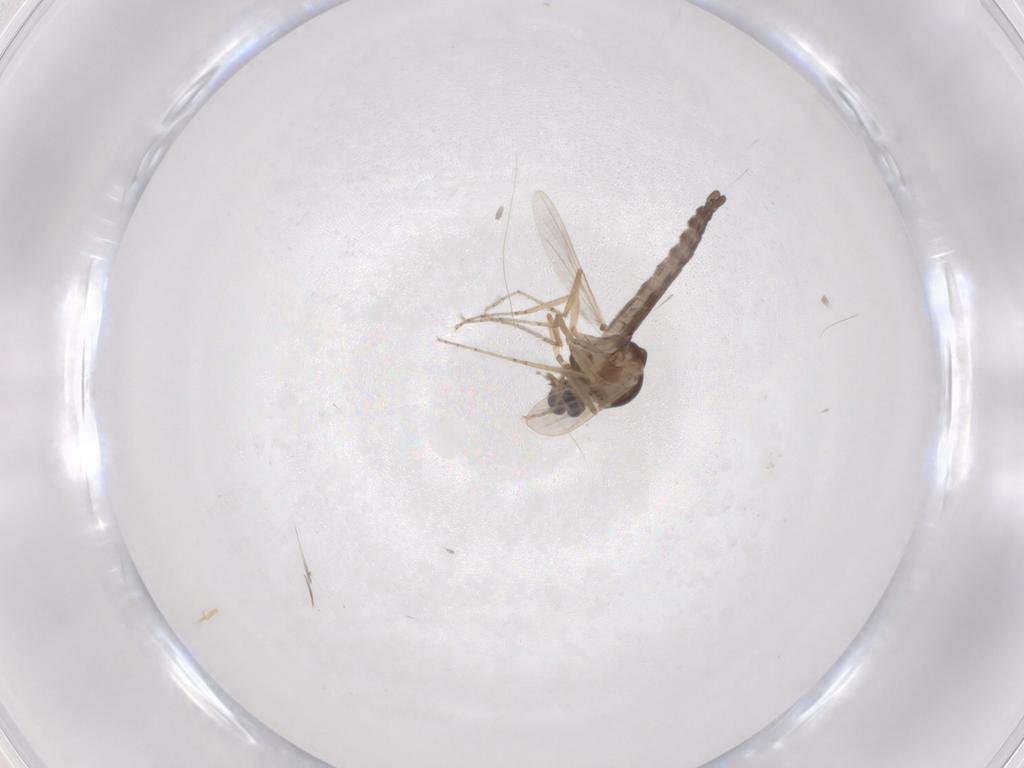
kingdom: Animalia
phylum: Arthropoda
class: Insecta
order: Diptera
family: Ceratopogonidae
